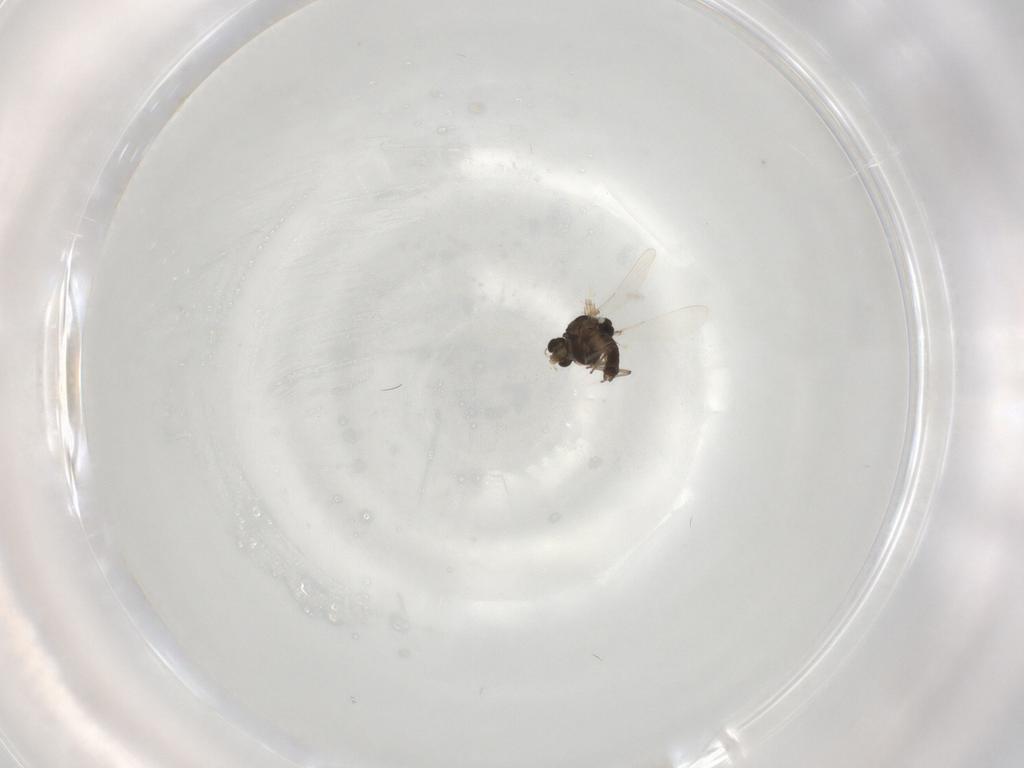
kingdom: Animalia
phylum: Arthropoda
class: Insecta
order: Diptera
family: Chironomidae
